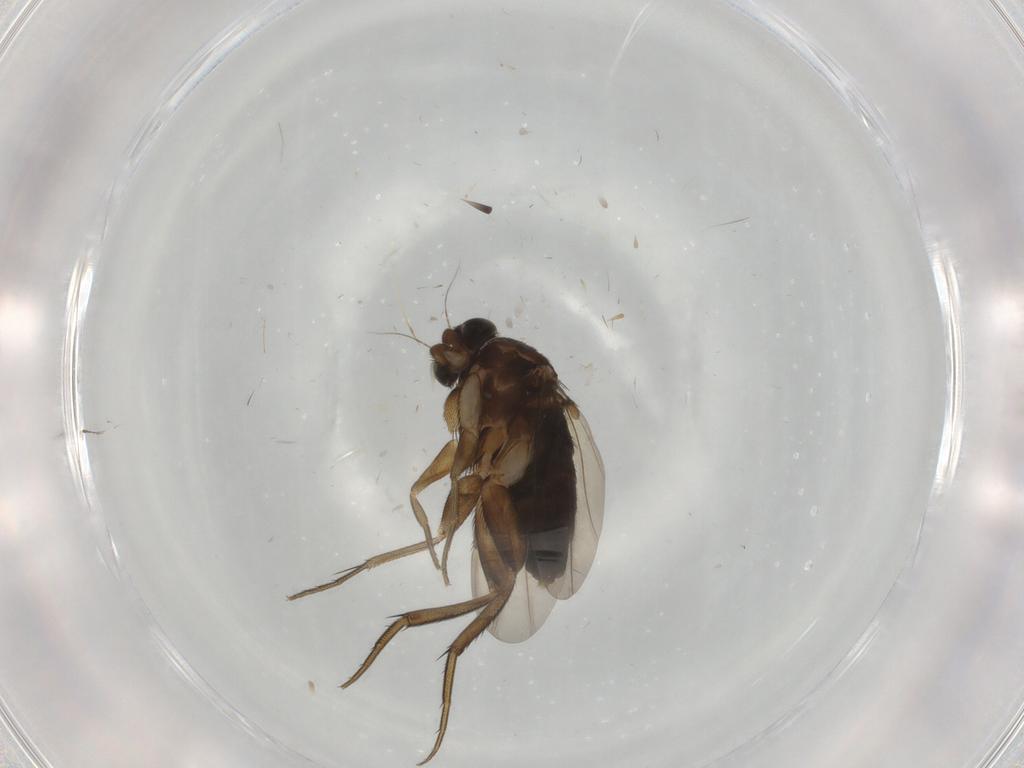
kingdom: Animalia
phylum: Arthropoda
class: Insecta
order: Diptera
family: Phoridae
